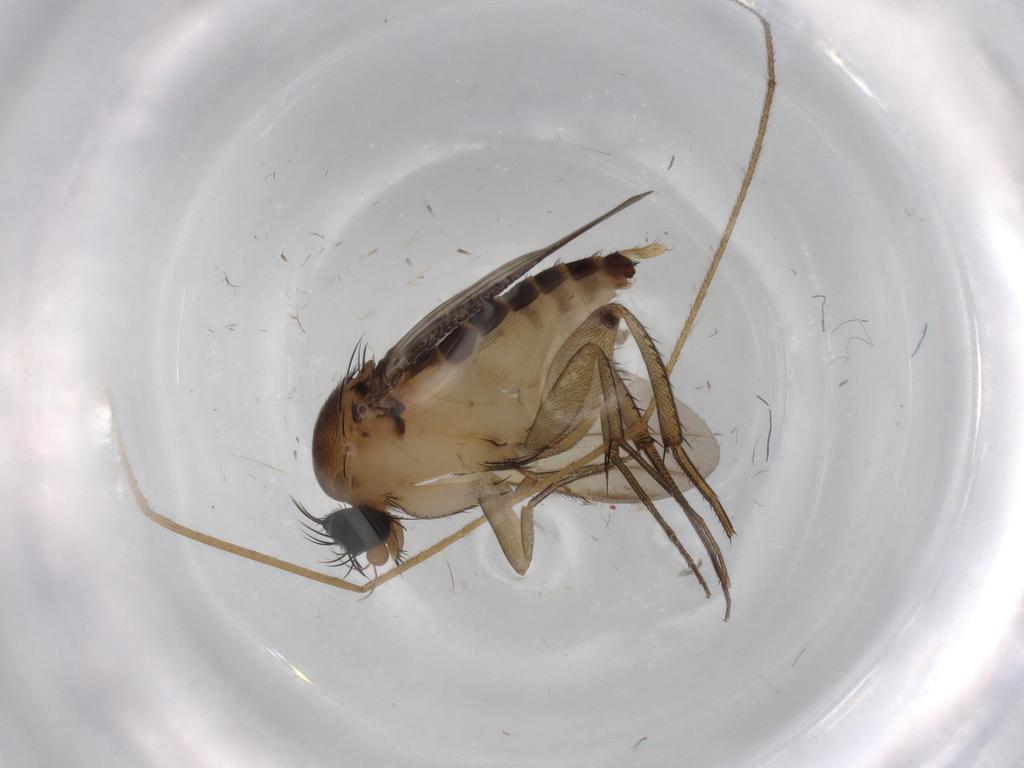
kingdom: Animalia
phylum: Arthropoda
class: Insecta
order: Diptera
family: Limoniidae
